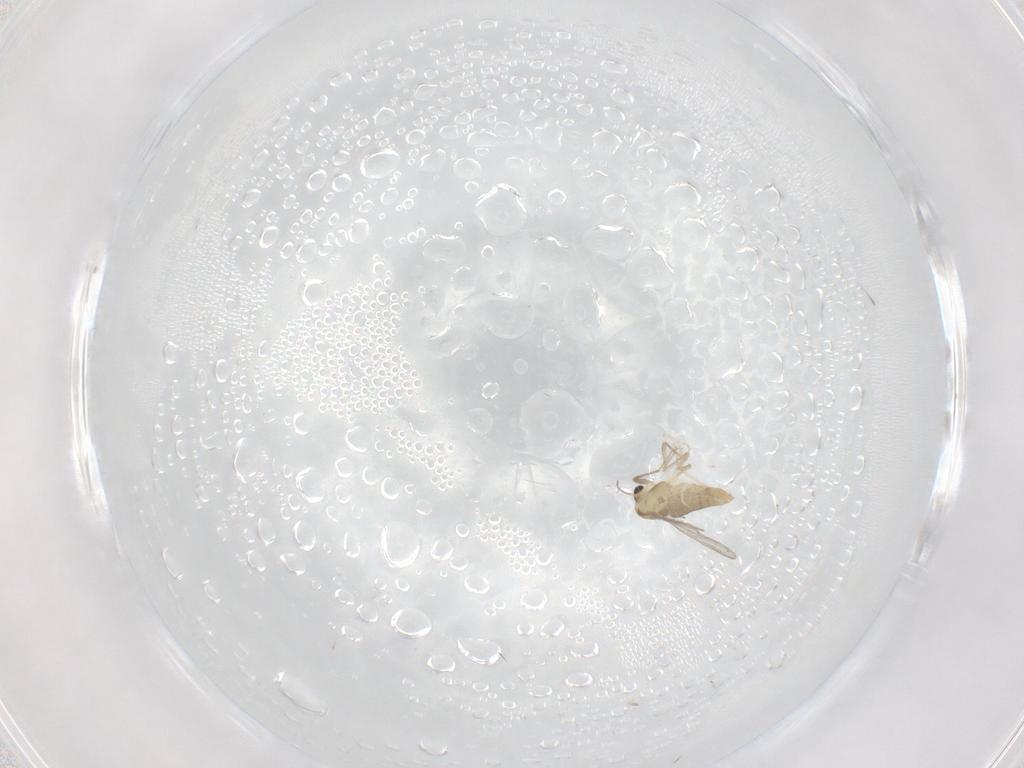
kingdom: Animalia
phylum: Arthropoda
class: Insecta
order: Diptera
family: Chironomidae
